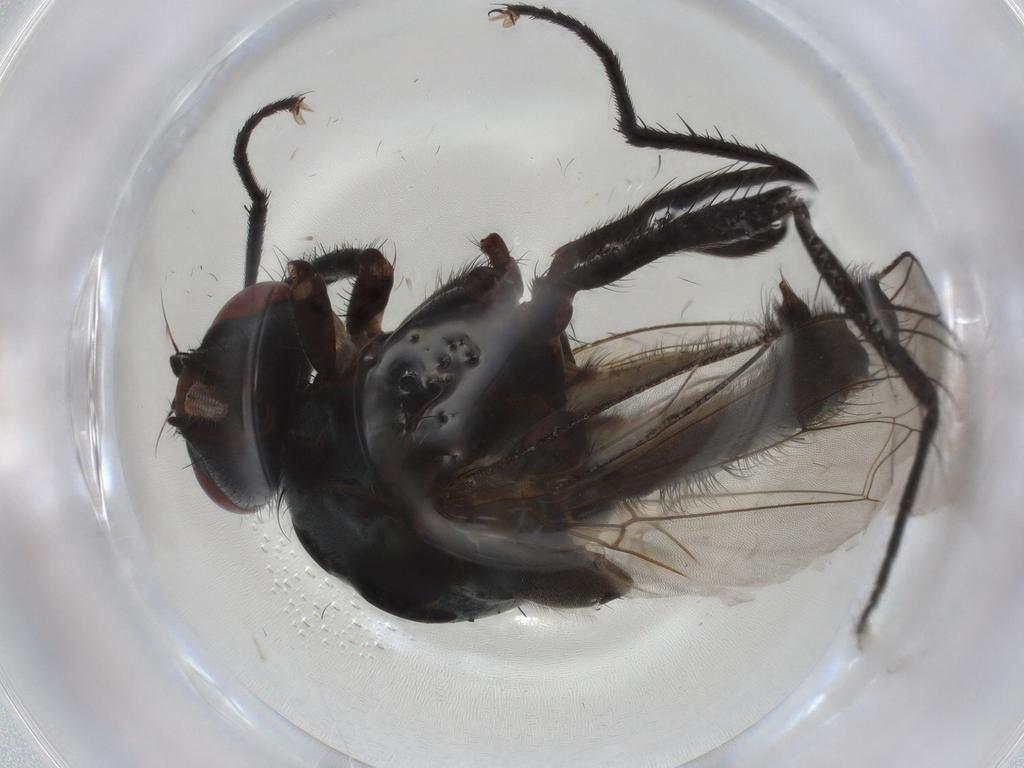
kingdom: Animalia
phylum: Arthropoda
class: Insecta
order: Diptera
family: Anthomyiidae
